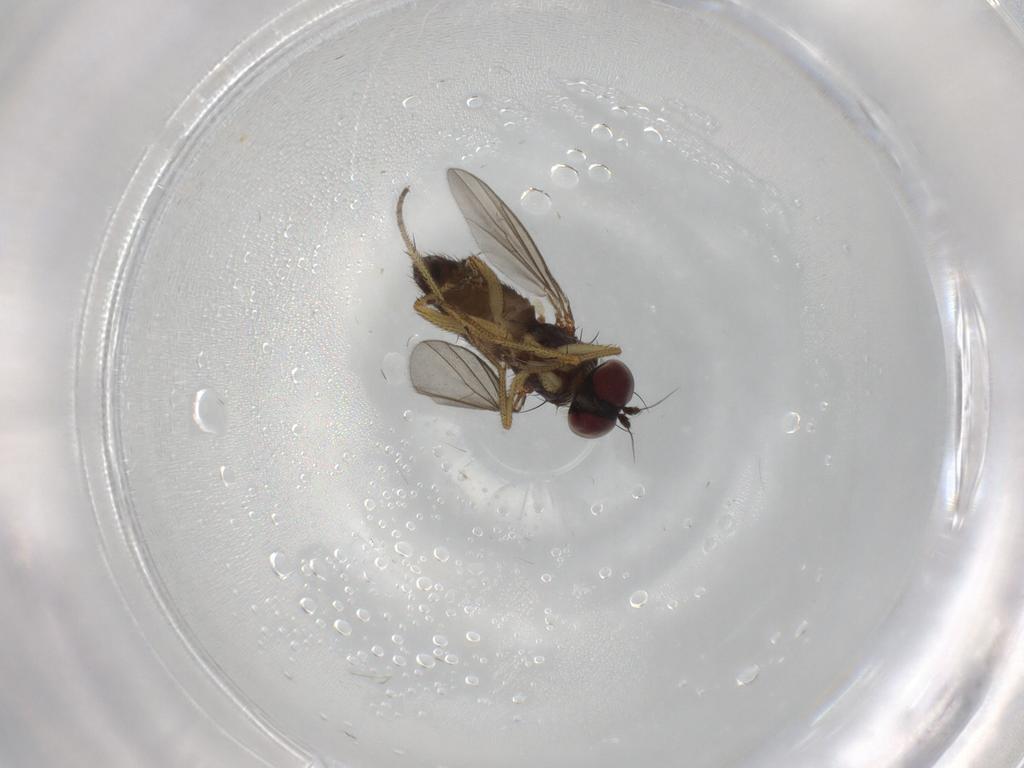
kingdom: Animalia
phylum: Arthropoda
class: Insecta
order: Diptera
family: Dolichopodidae
